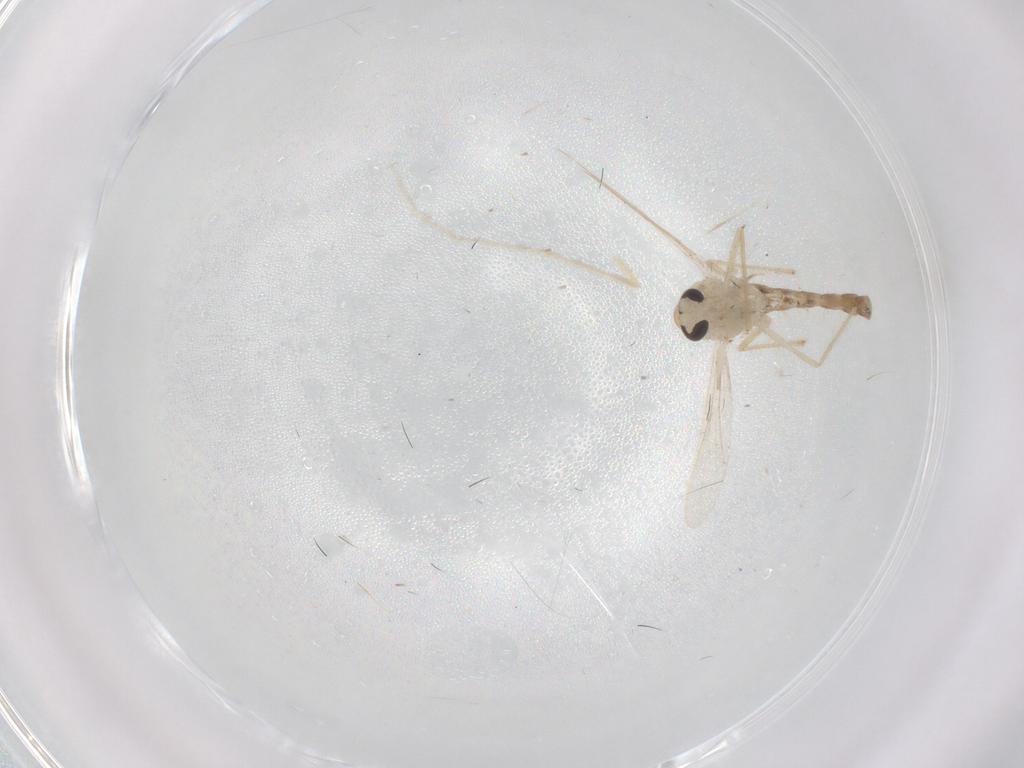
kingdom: Animalia
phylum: Arthropoda
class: Insecta
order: Diptera
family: Chironomidae
